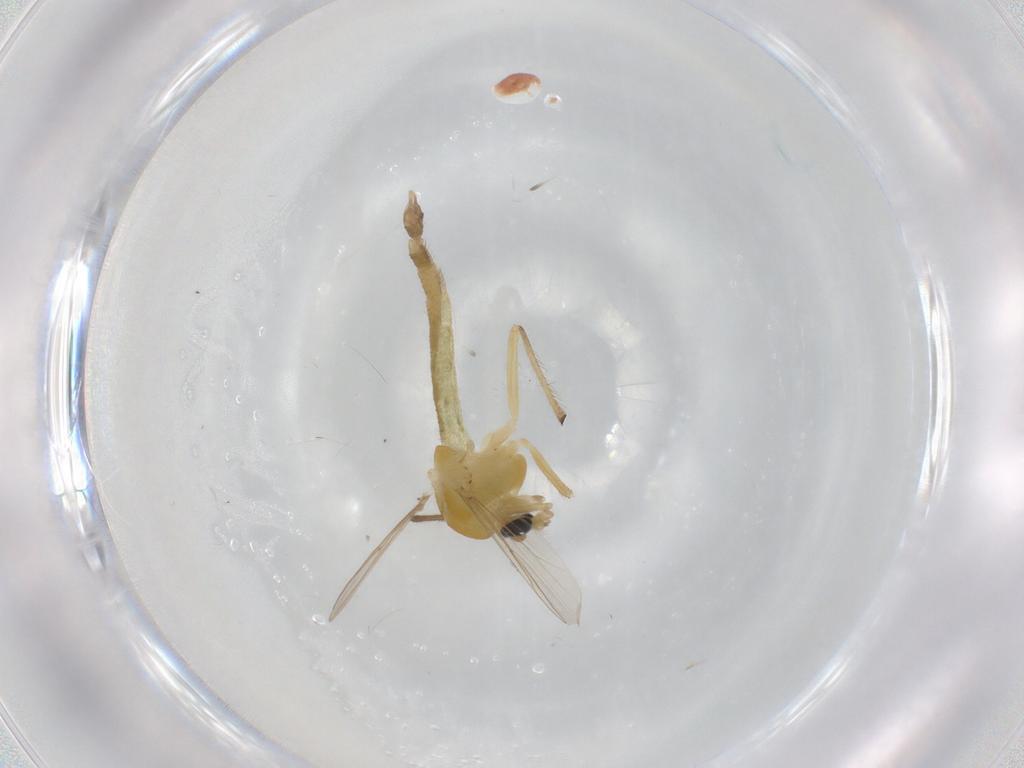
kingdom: Animalia
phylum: Arthropoda
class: Insecta
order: Diptera
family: Chironomidae
